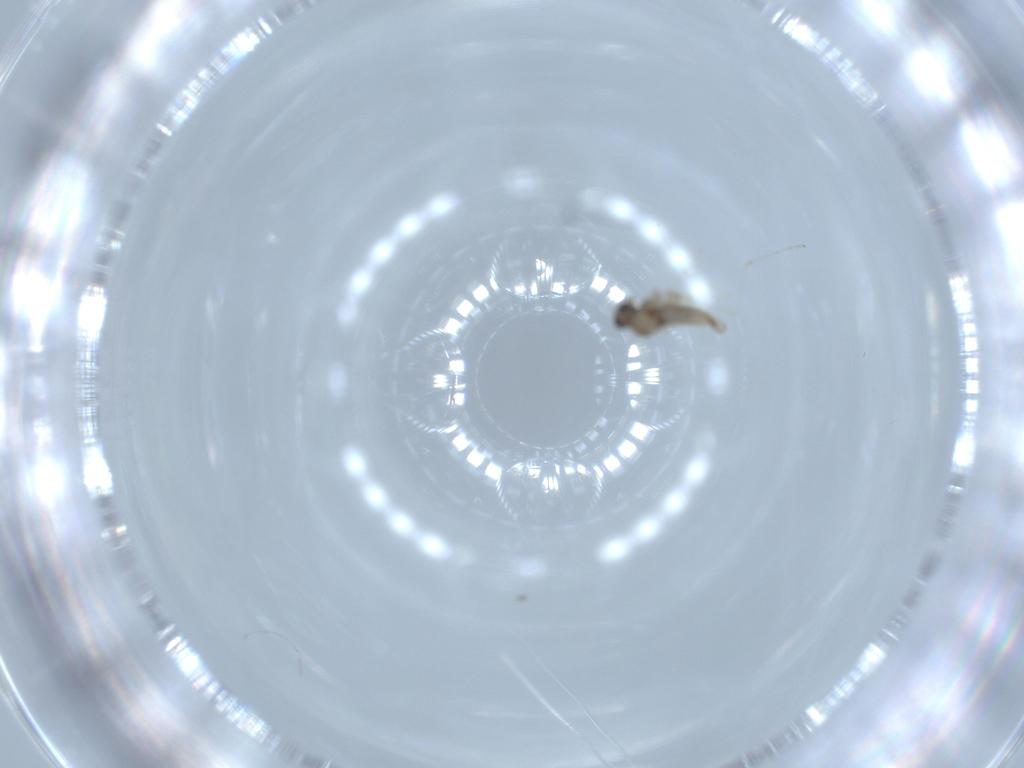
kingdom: Animalia
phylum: Arthropoda
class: Insecta
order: Diptera
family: Cecidomyiidae
